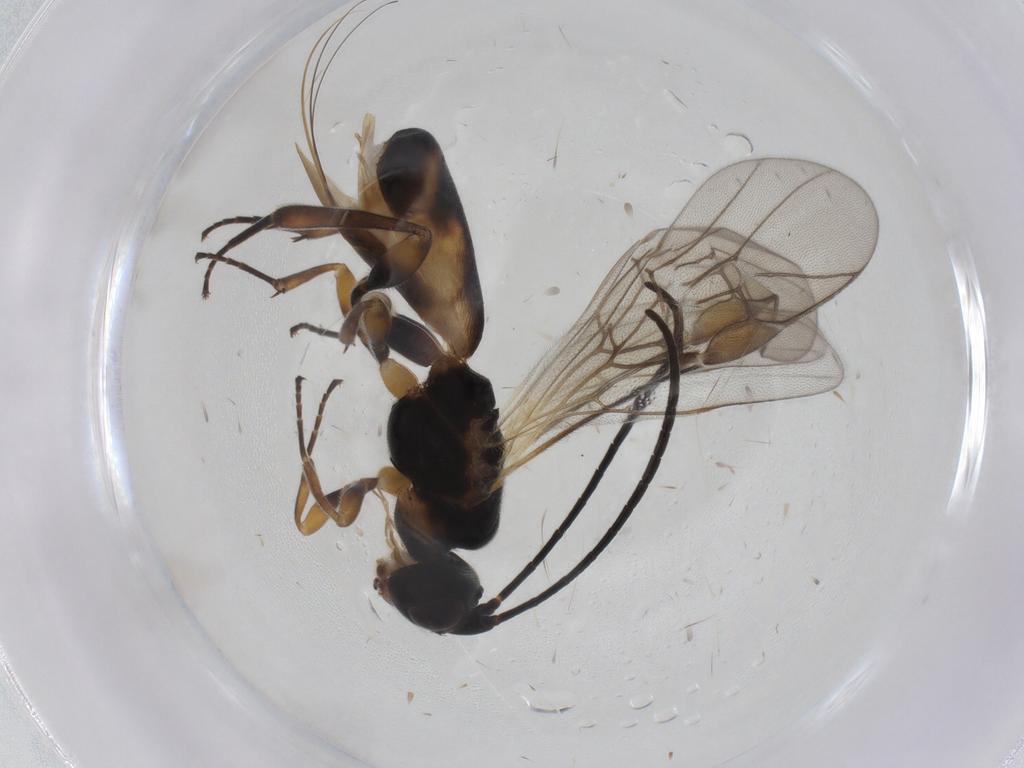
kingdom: Animalia
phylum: Arthropoda
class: Insecta
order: Hymenoptera
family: Braconidae
